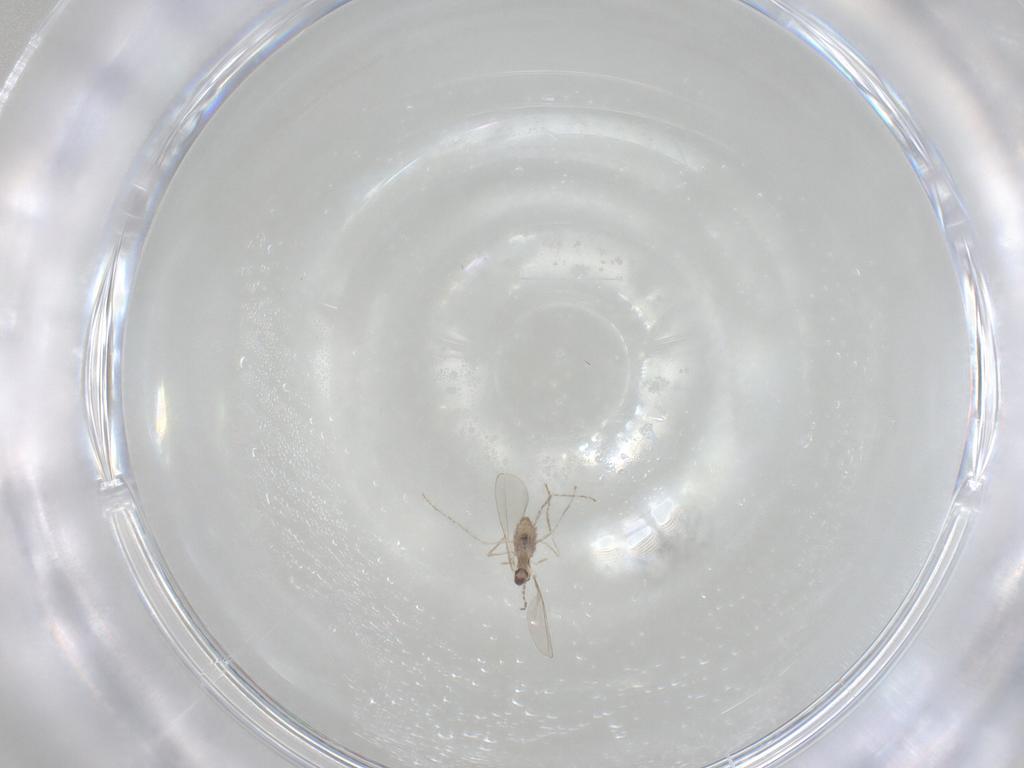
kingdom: Animalia
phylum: Arthropoda
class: Insecta
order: Diptera
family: Cecidomyiidae
